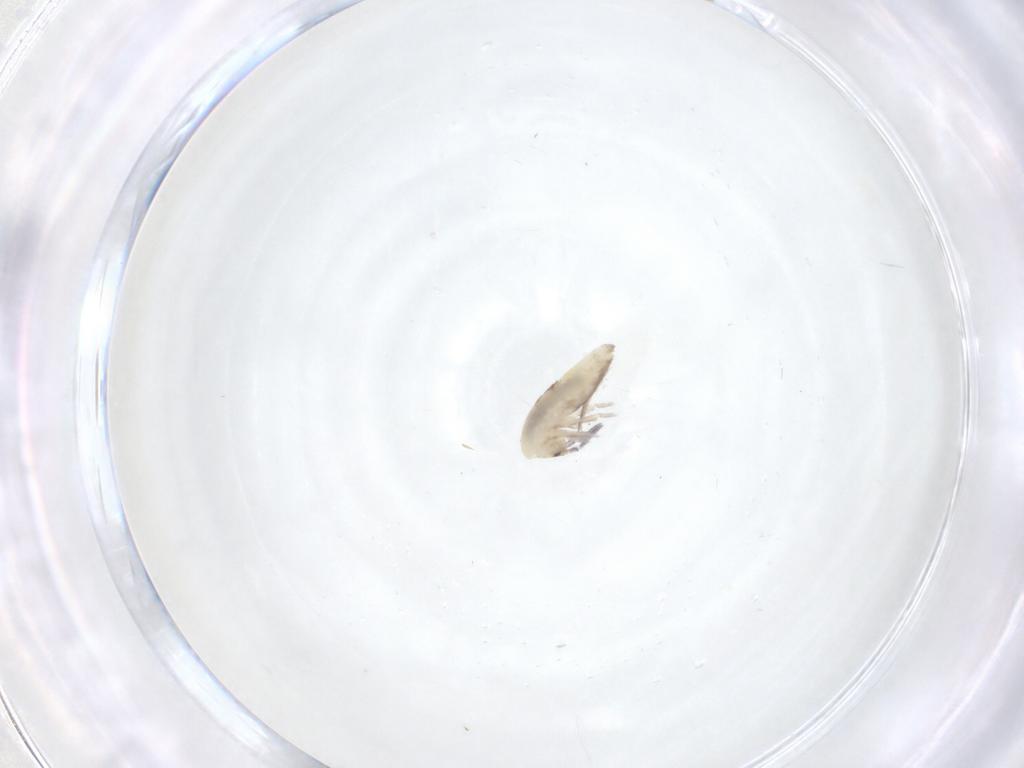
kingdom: Animalia
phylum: Arthropoda
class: Collembola
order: Entomobryomorpha
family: Entomobryidae
